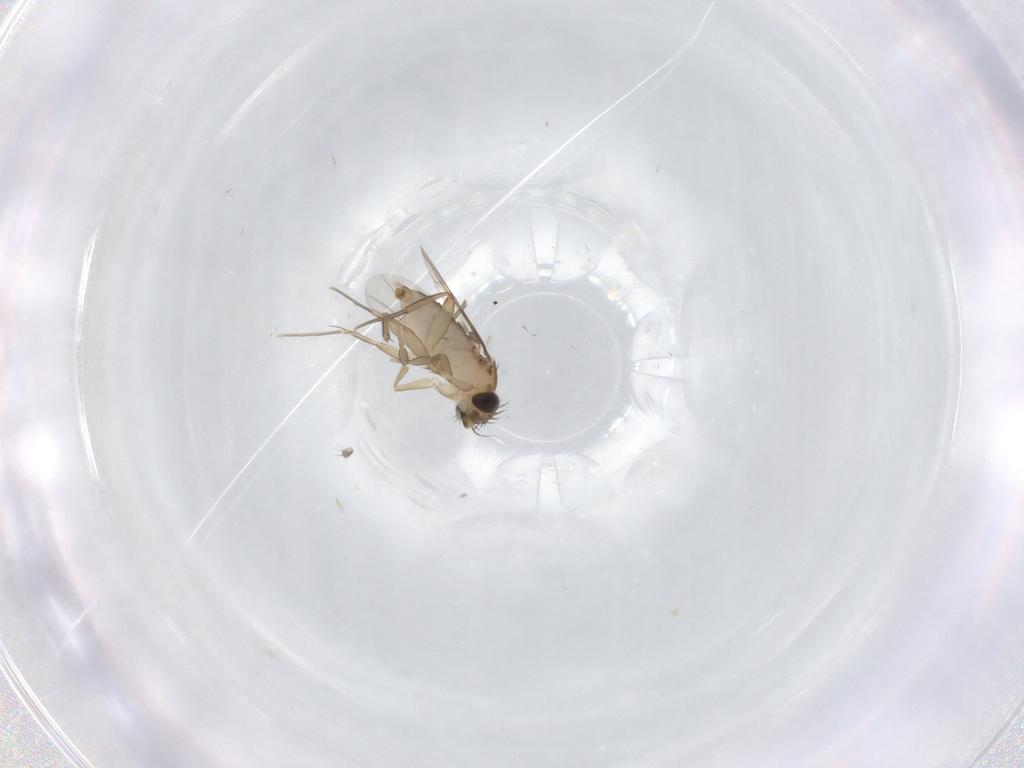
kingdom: Animalia
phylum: Arthropoda
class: Insecta
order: Diptera
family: Phoridae
